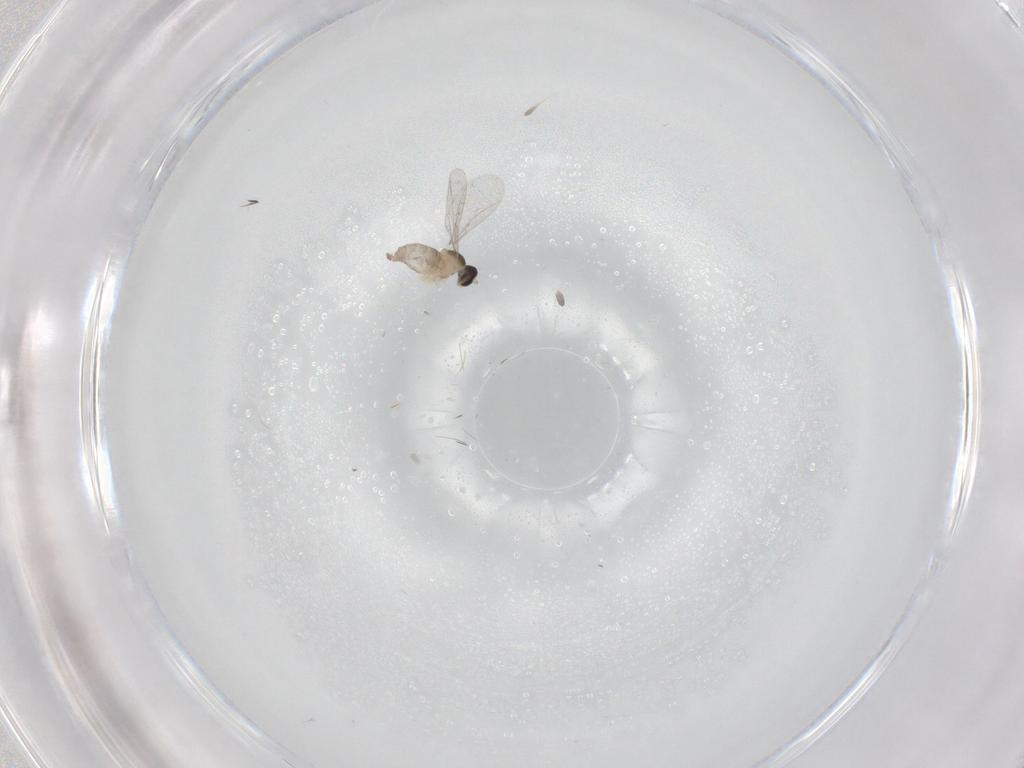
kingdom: Animalia
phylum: Arthropoda
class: Insecta
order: Diptera
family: Cecidomyiidae
